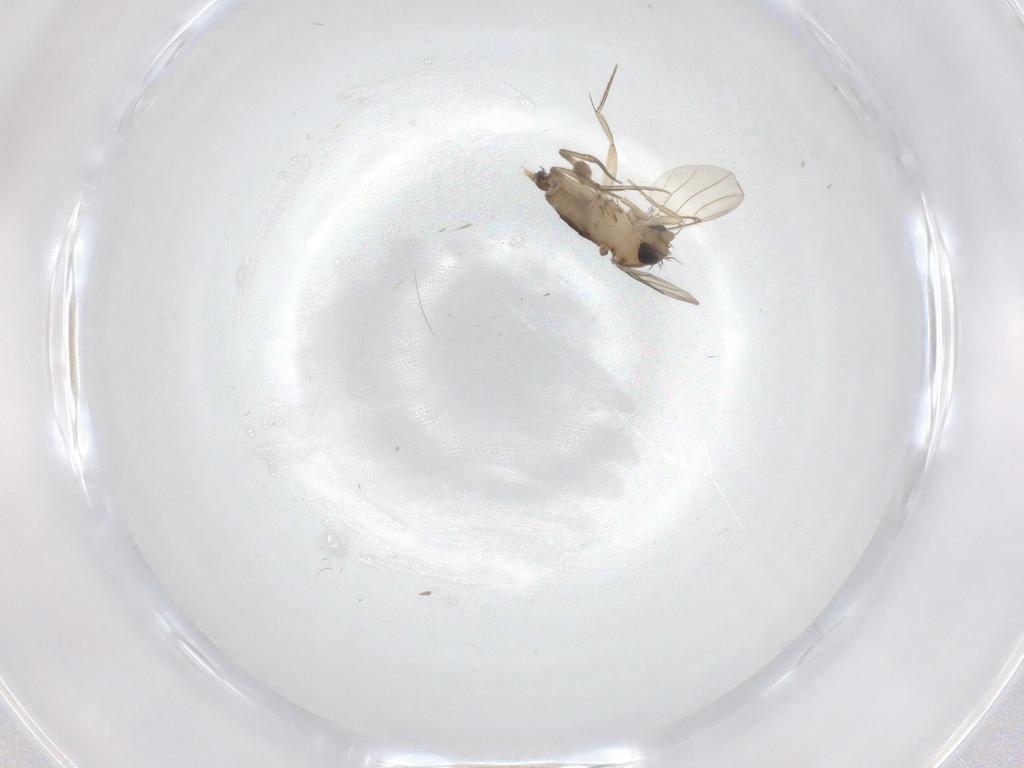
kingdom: Animalia
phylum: Arthropoda
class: Insecta
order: Diptera
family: Phoridae
